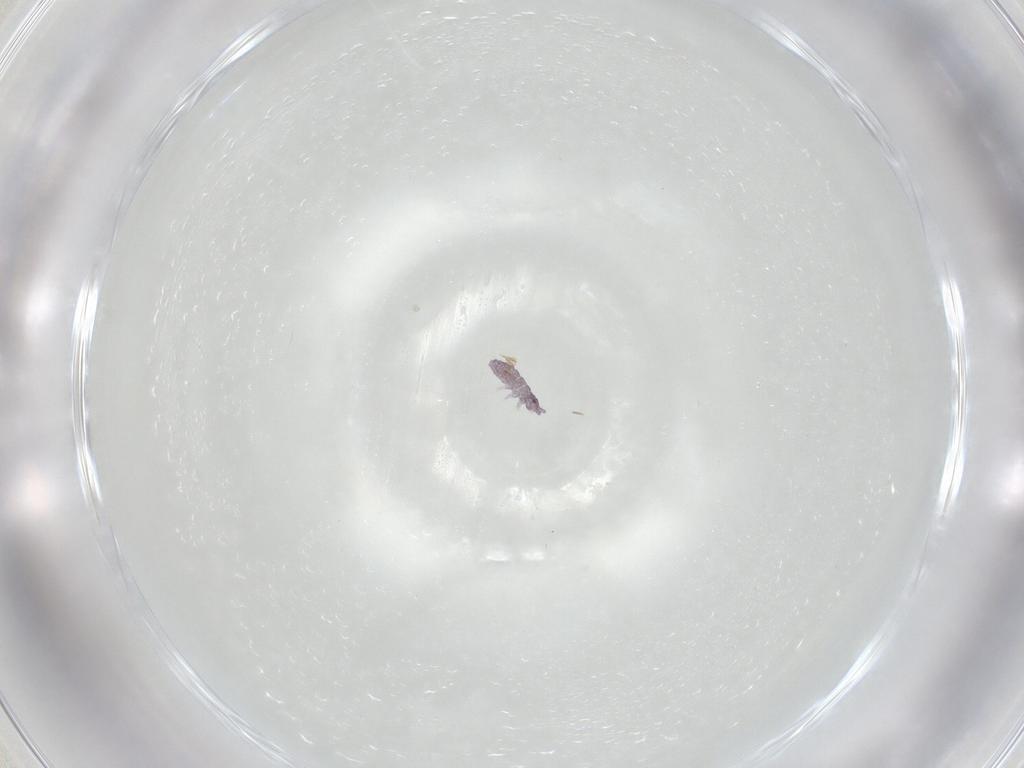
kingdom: Animalia
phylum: Arthropoda
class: Collembola
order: Poduromorpha
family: Brachystomellidae
